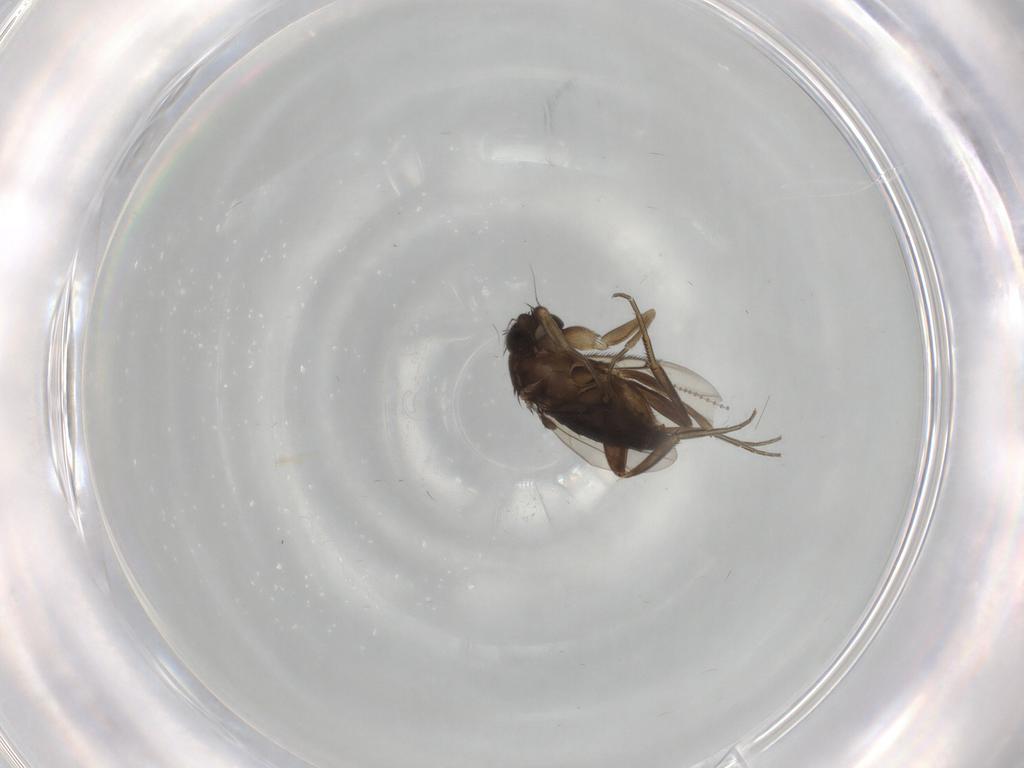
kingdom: Animalia
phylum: Arthropoda
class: Insecta
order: Diptera
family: Phoridae
